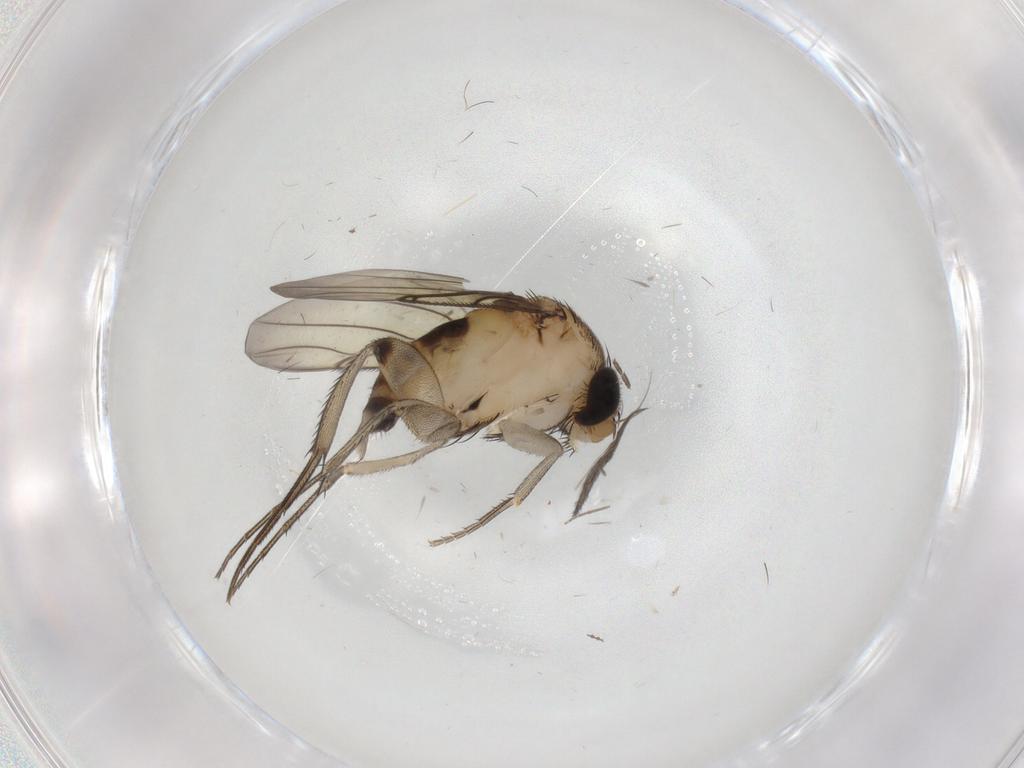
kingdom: Animalia
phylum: Arthropoda
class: Insecta
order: Diptera
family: Phoridae
